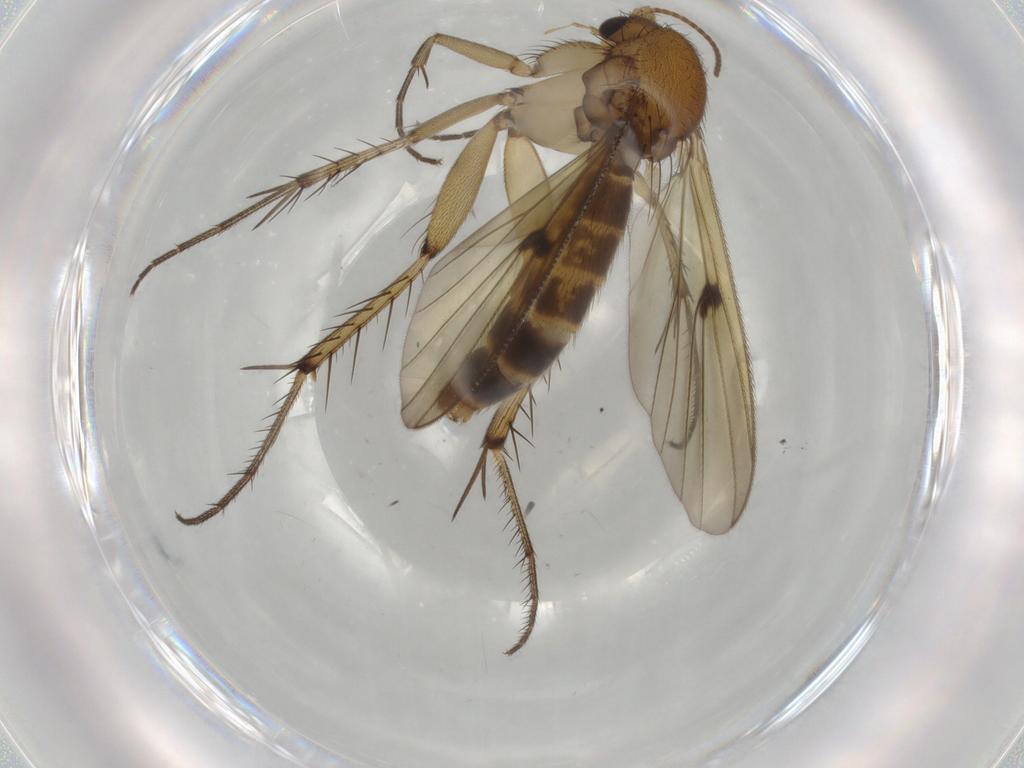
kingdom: Animalia
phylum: Arthropoda
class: Insecta
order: Diptera
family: Mycetophilidae
